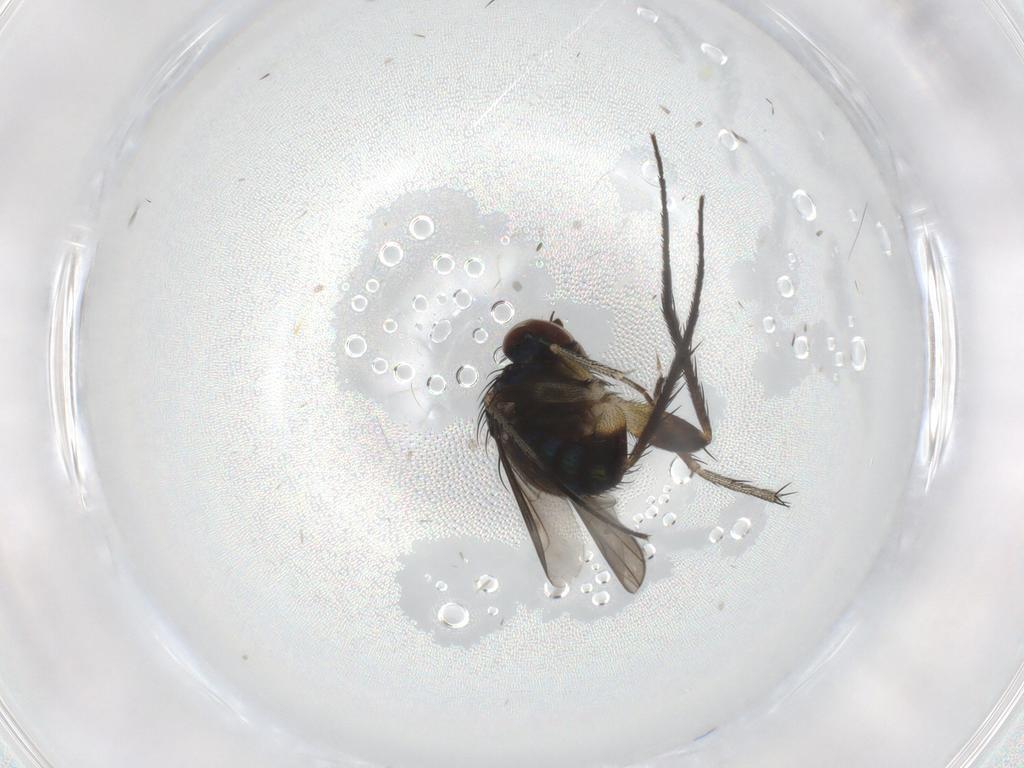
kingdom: Animalia
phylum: Arthropoda
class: Insecta
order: Diptera
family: Dolichopodidae
